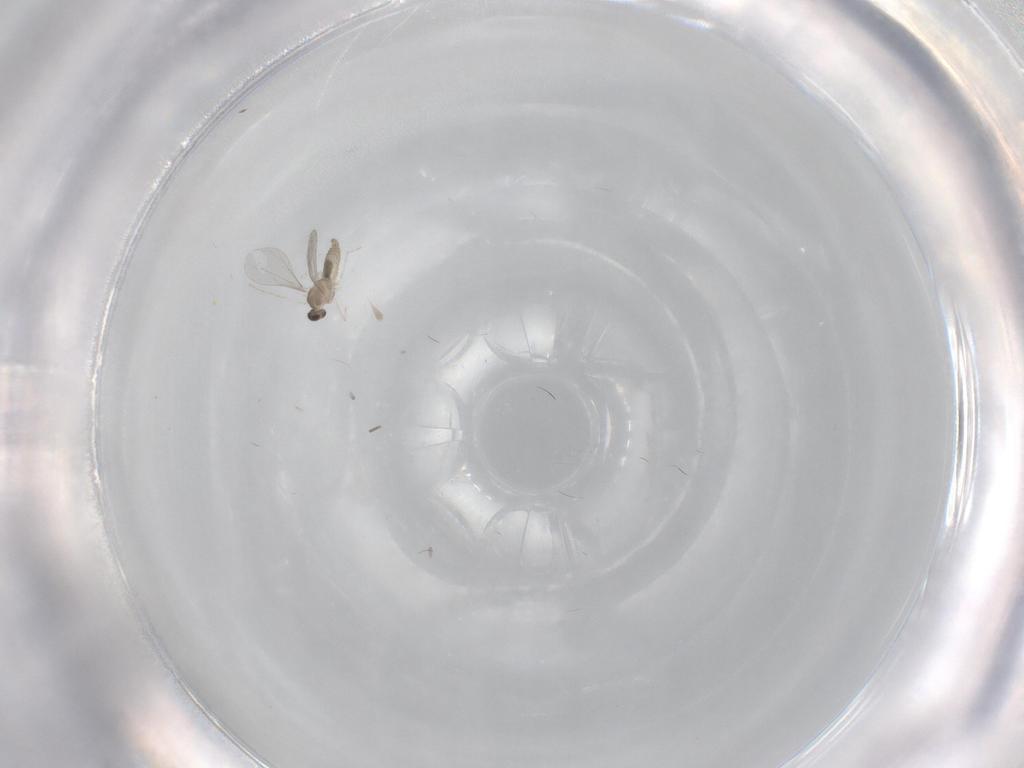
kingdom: Animalia
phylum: Arthropoda
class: Insecta
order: Diptera
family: Cecidomyiidae
